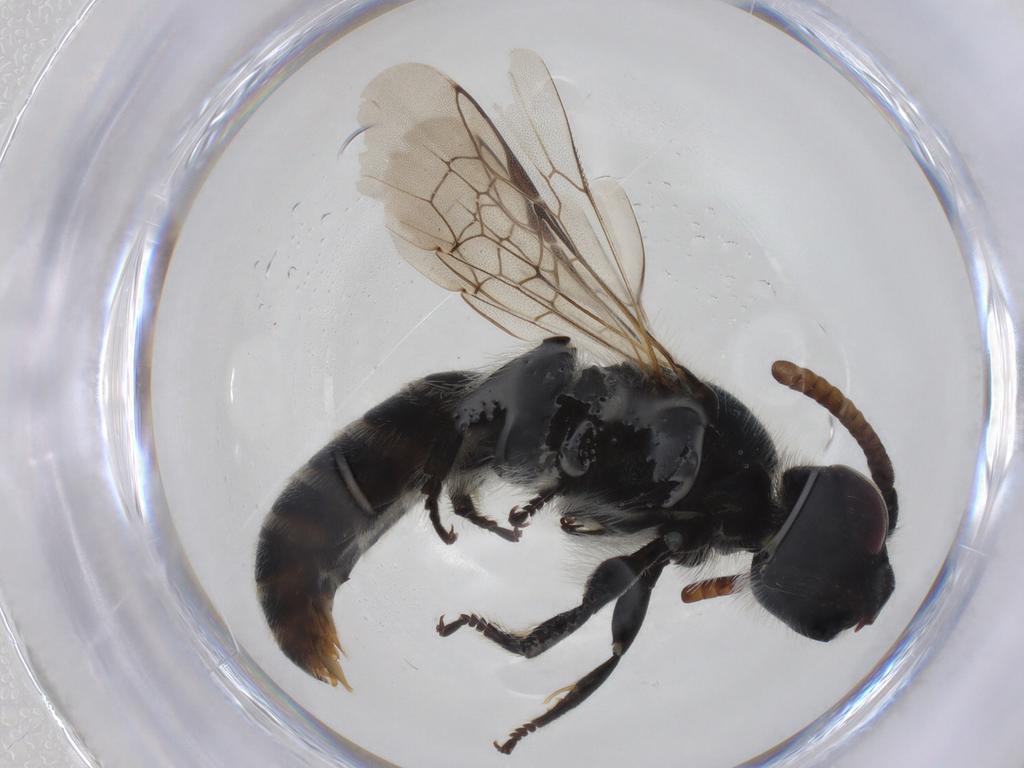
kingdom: Animalia
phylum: Arthropoda
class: Insecta
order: Hymenoptera
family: Halictidae
